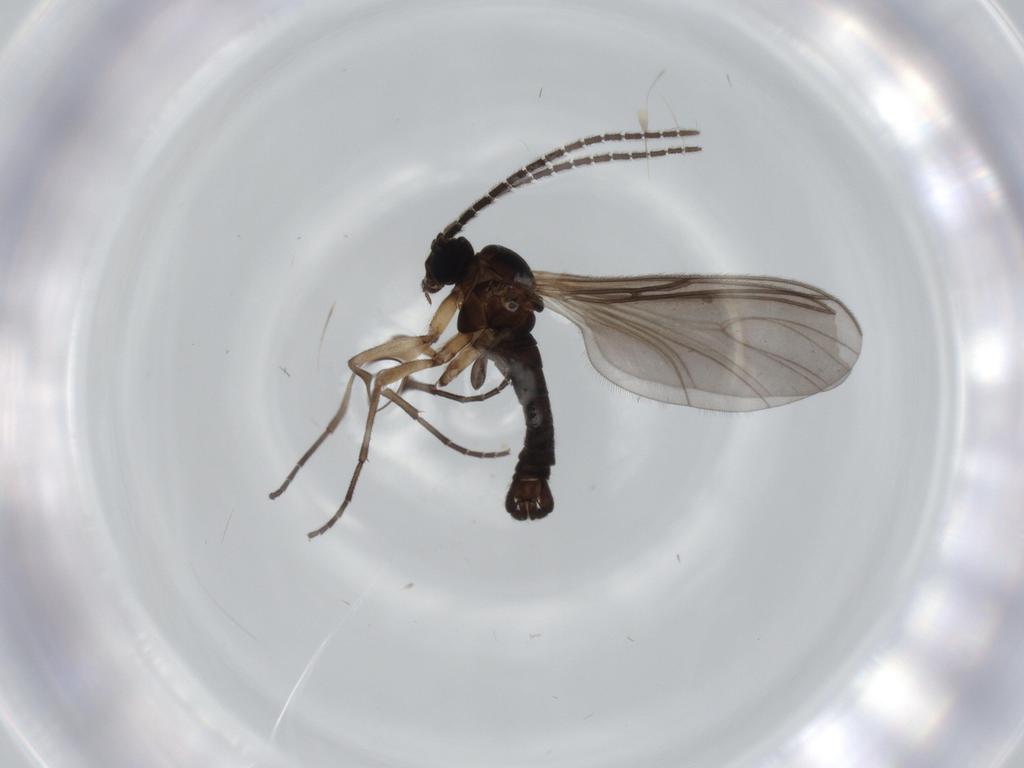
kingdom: Animalia
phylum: Arthropoda
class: Insecta
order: Diptera
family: Sciaridae
